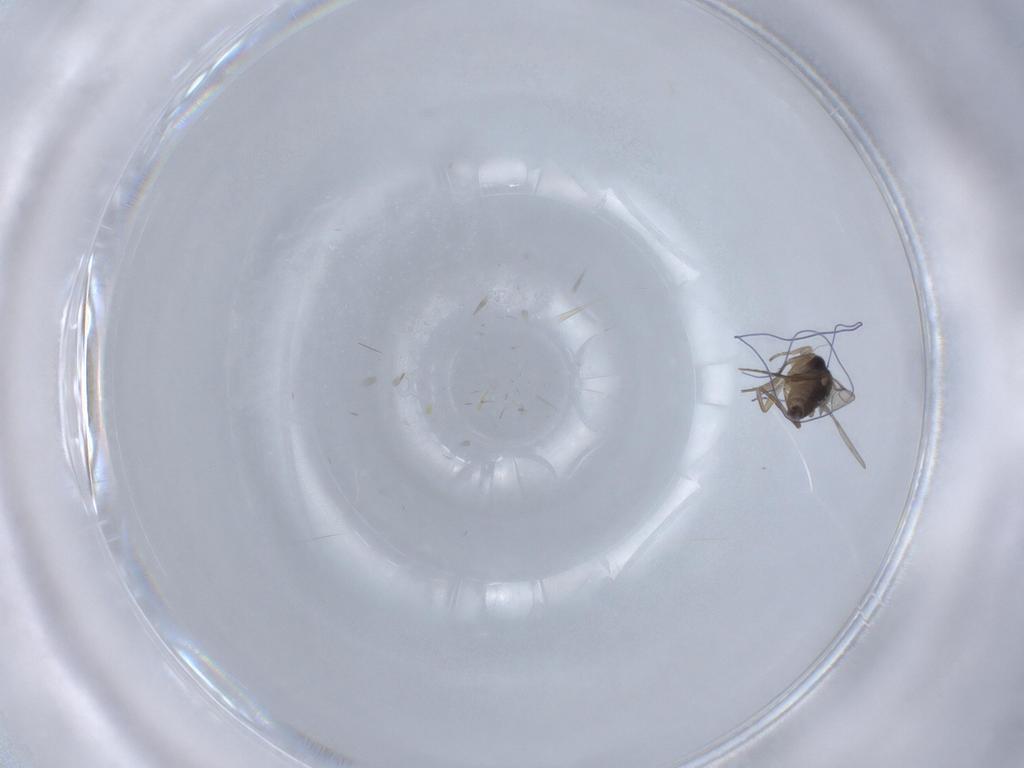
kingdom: Animalia
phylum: Arthropoda
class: Insecta
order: Diptera
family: Sciaridae
